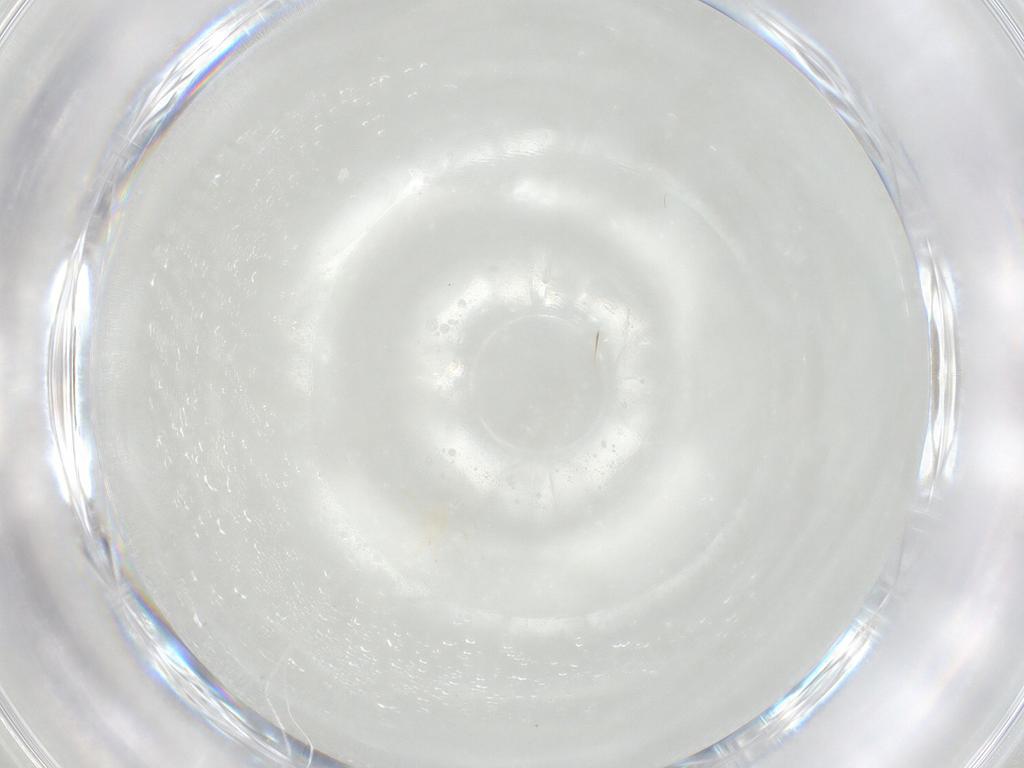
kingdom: Animalia
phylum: Arthropoda
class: Arachnida
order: Mesostigmata
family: Phytoseiidae
